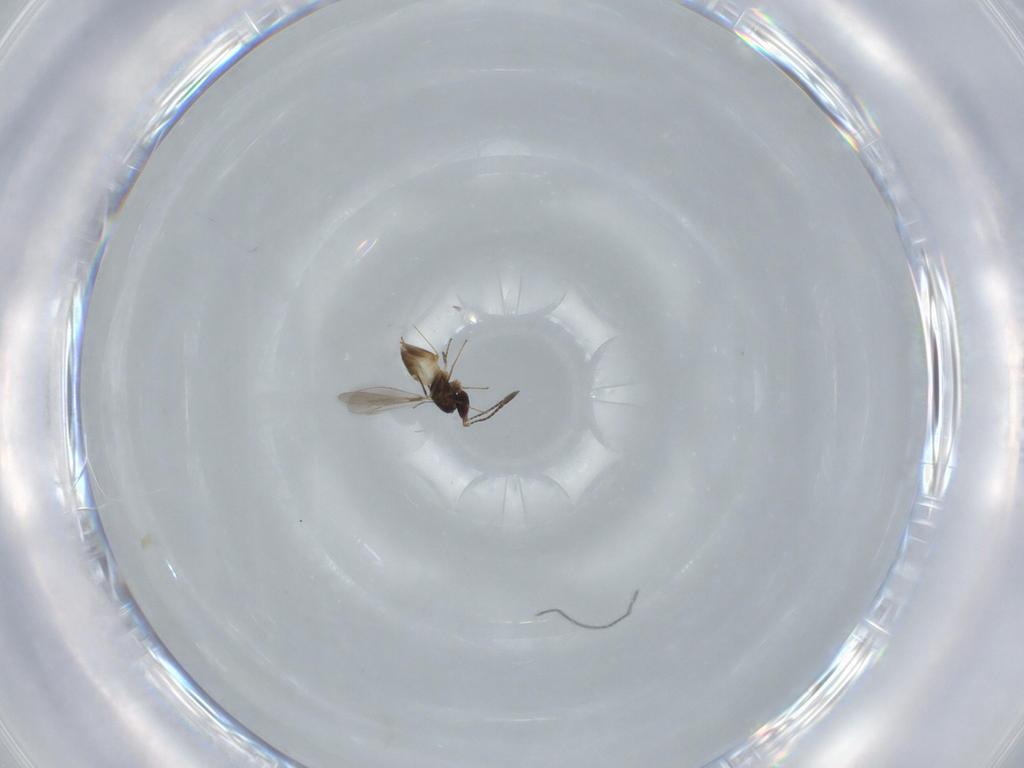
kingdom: Animalia
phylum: Arthropoda
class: Insecta
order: Hymenoptera
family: Mymaridae
